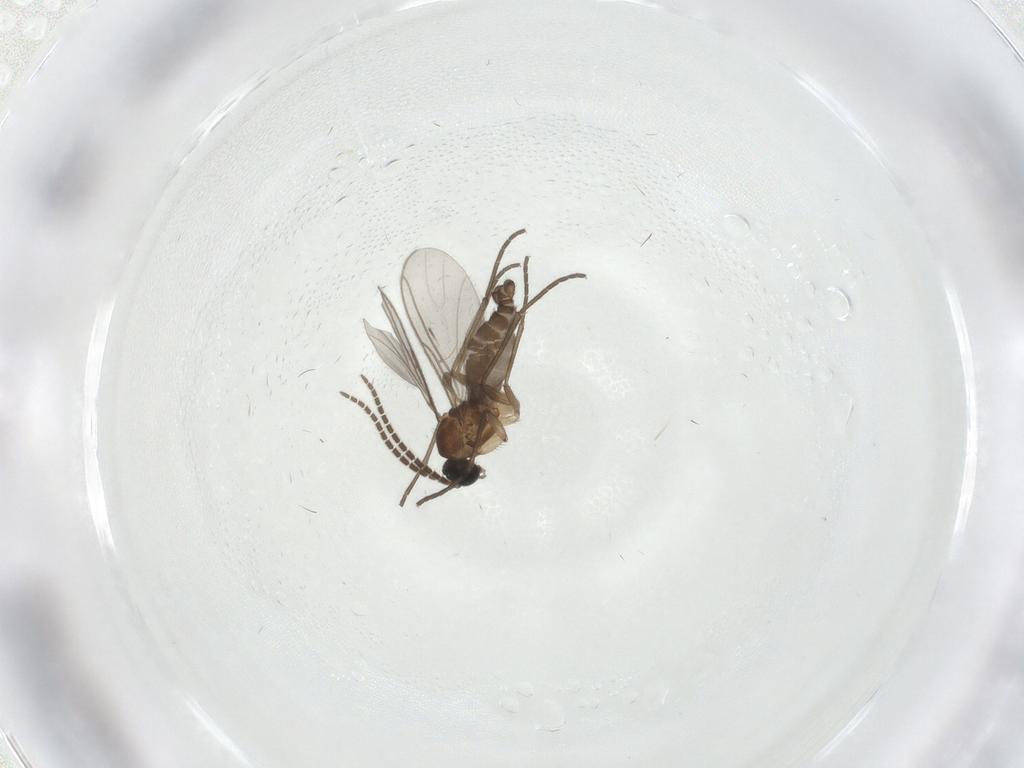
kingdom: Animalia
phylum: Arthropoda
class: Insecta
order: Diptera
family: Sciaridae
